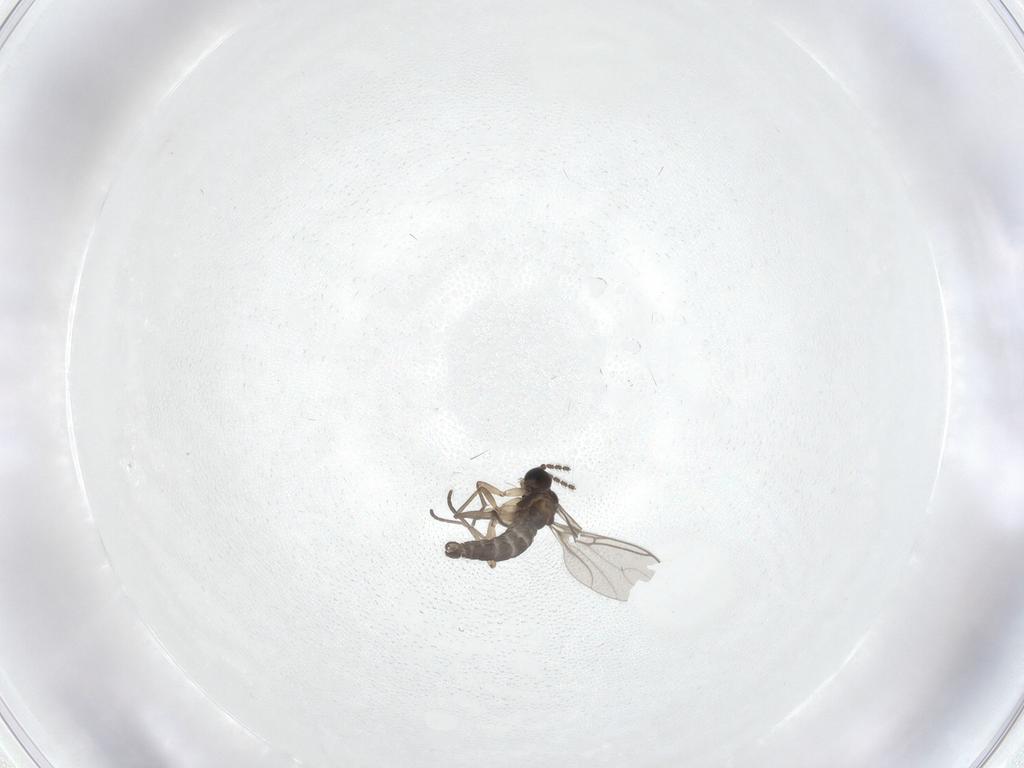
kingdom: Animalia
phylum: Arthropoda
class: Insecta
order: Diptera
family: Sciaridae
